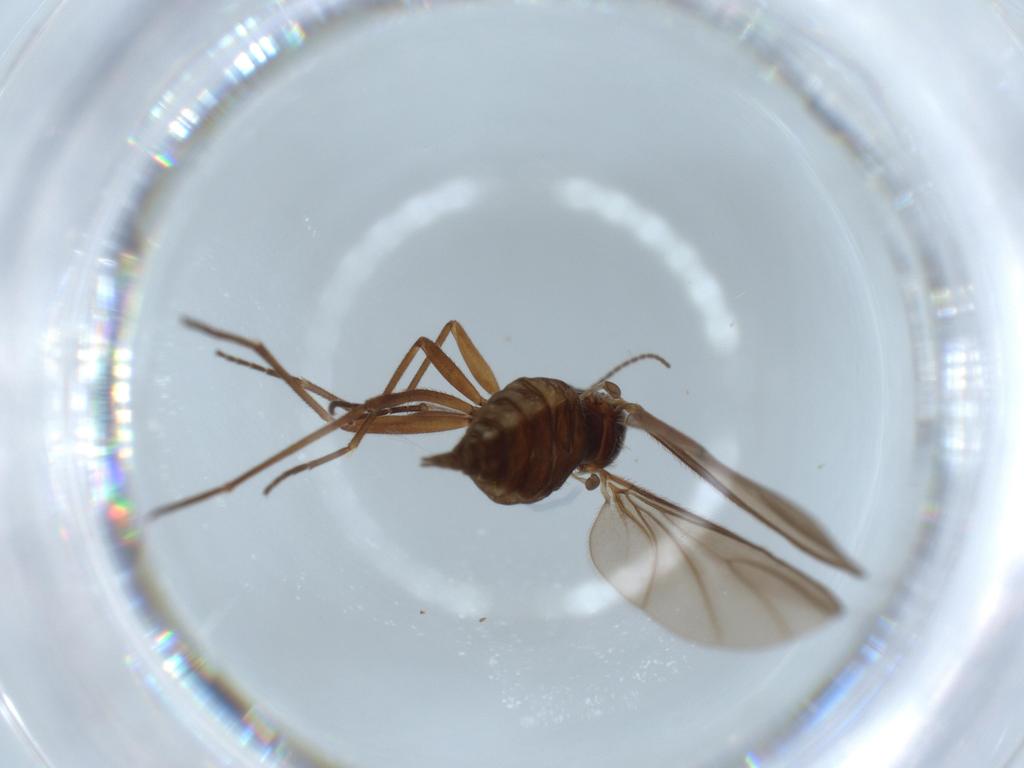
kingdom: Animalia
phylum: Arthropoda
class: Insecta
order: Diptera
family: Sciaridae
